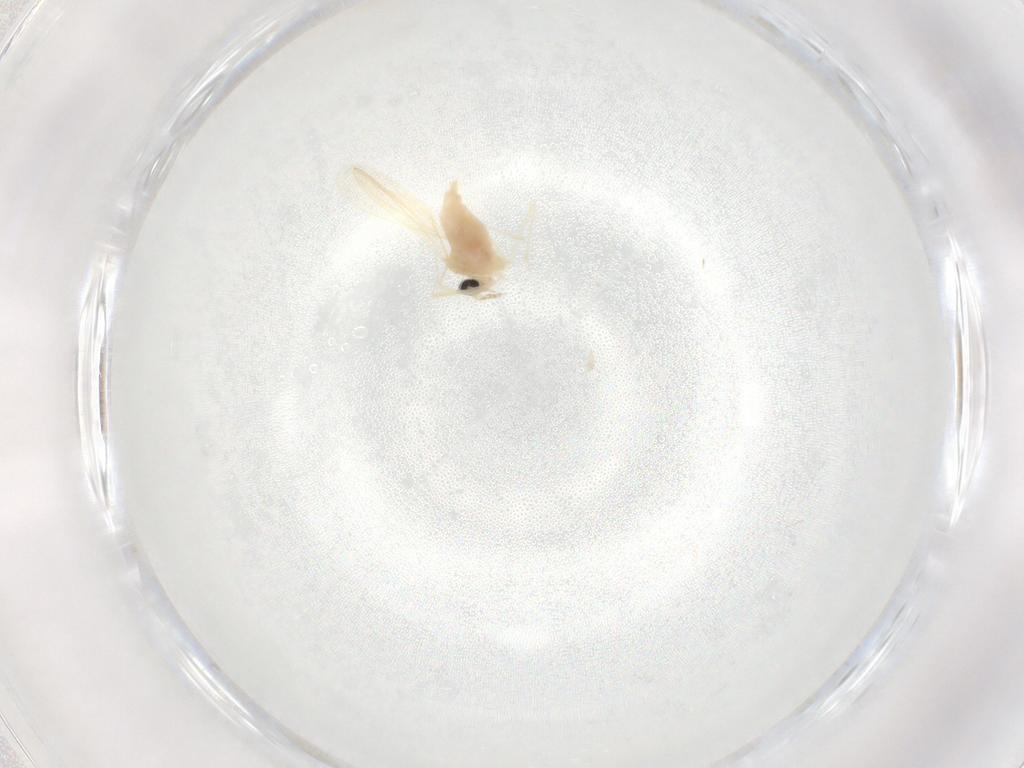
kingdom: Animalia
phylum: Arthropoda
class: Insecta
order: Diptera
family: Cecidomyiidae
